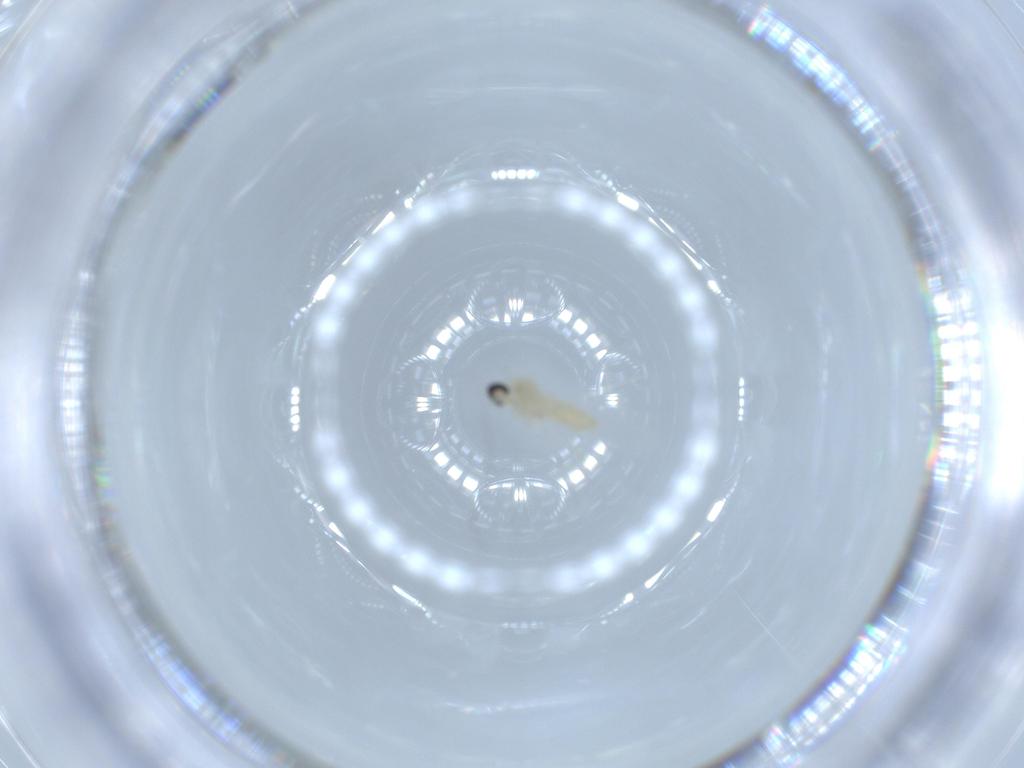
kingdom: Animalia
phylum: Arthropoda
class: Insecta
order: Diptera
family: Cecidomyiidae
